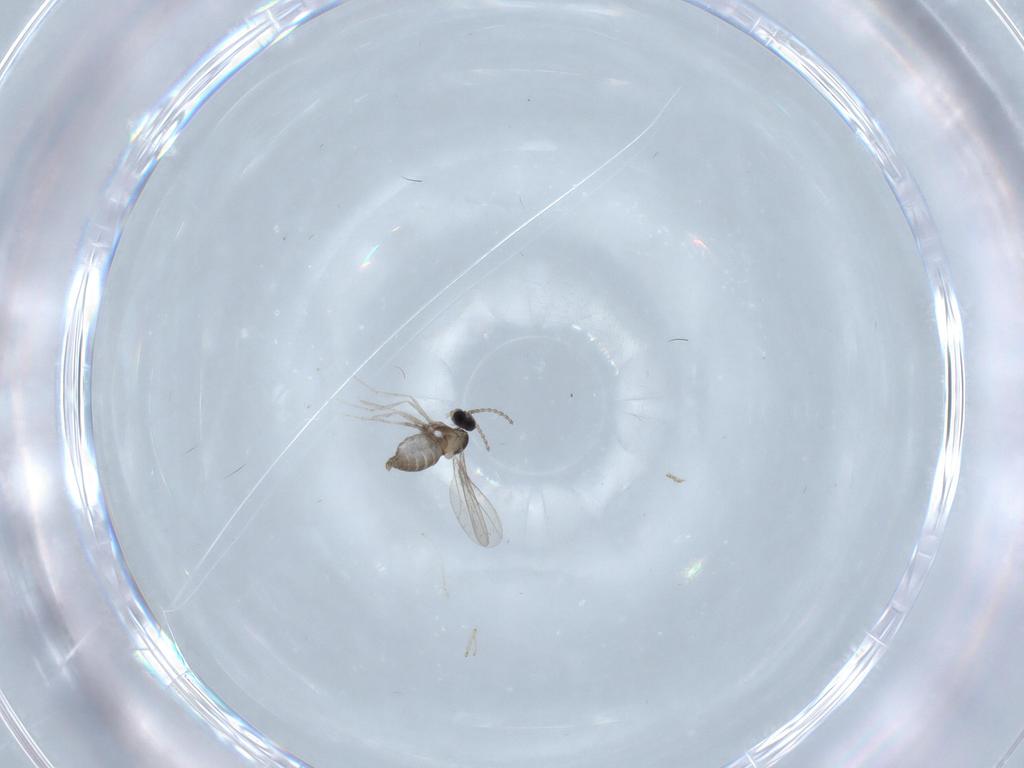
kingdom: Animalia
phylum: Arthropoda
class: Insecta
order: Diptera
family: Cecidomyiidae
